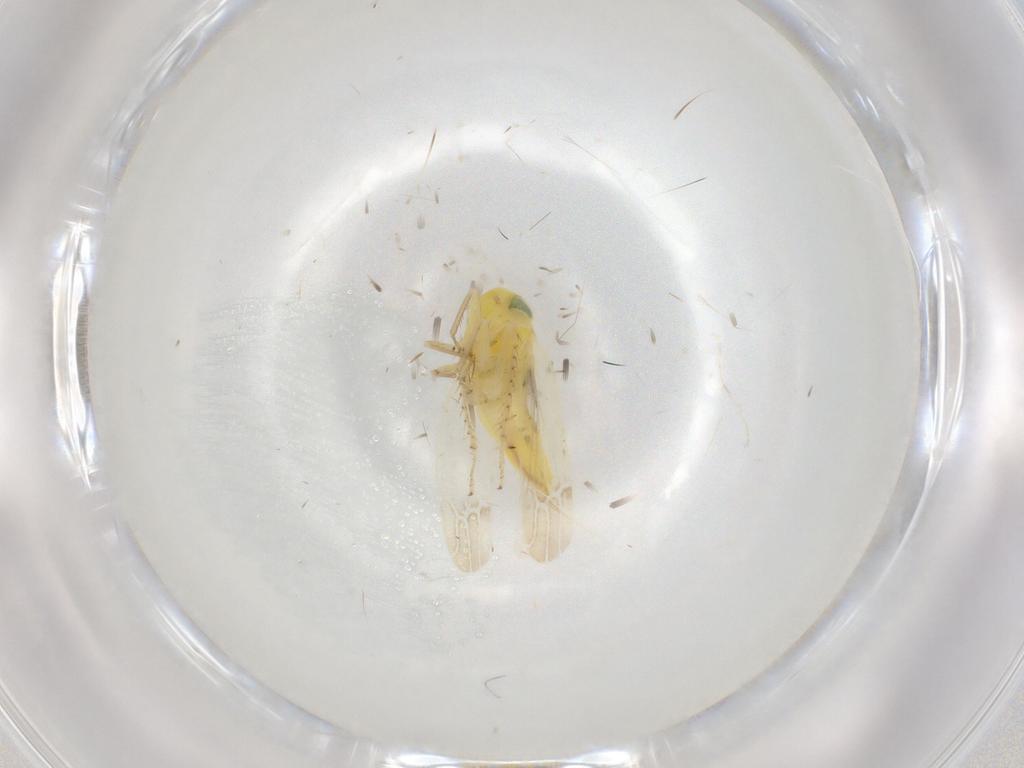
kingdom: Animalia
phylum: Arthropoda
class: Insecta
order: Hemiptera
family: Cicadellidae
